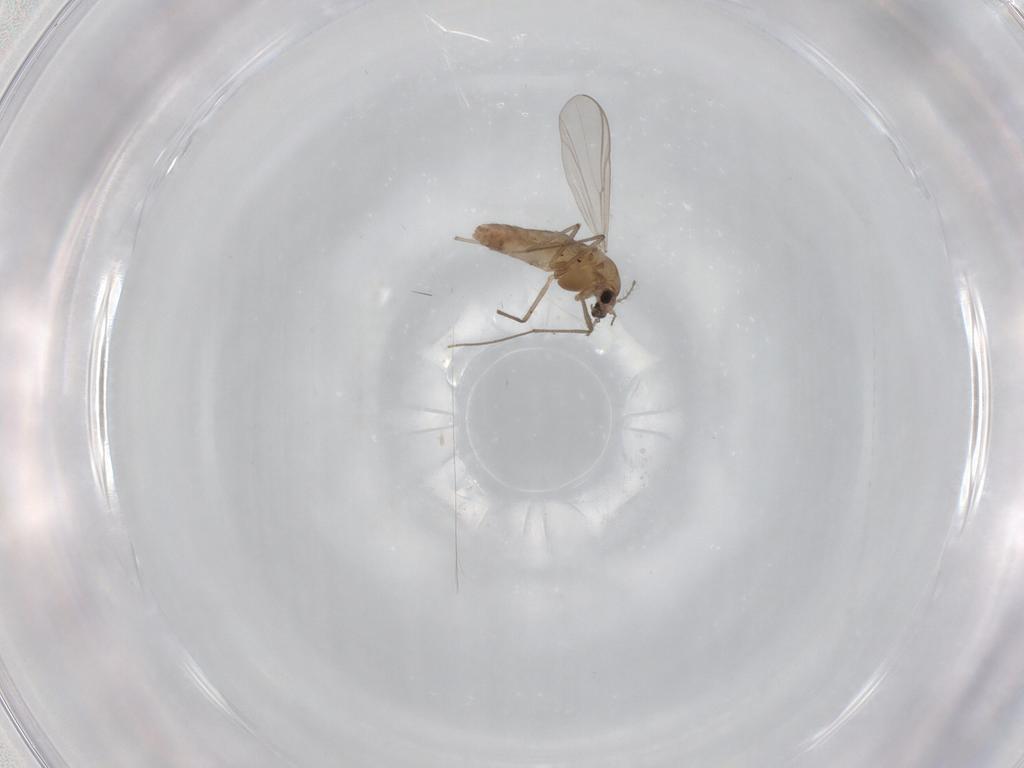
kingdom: Animalia
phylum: Arthropoda
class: Insecta
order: Diptera
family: Chironomidae
